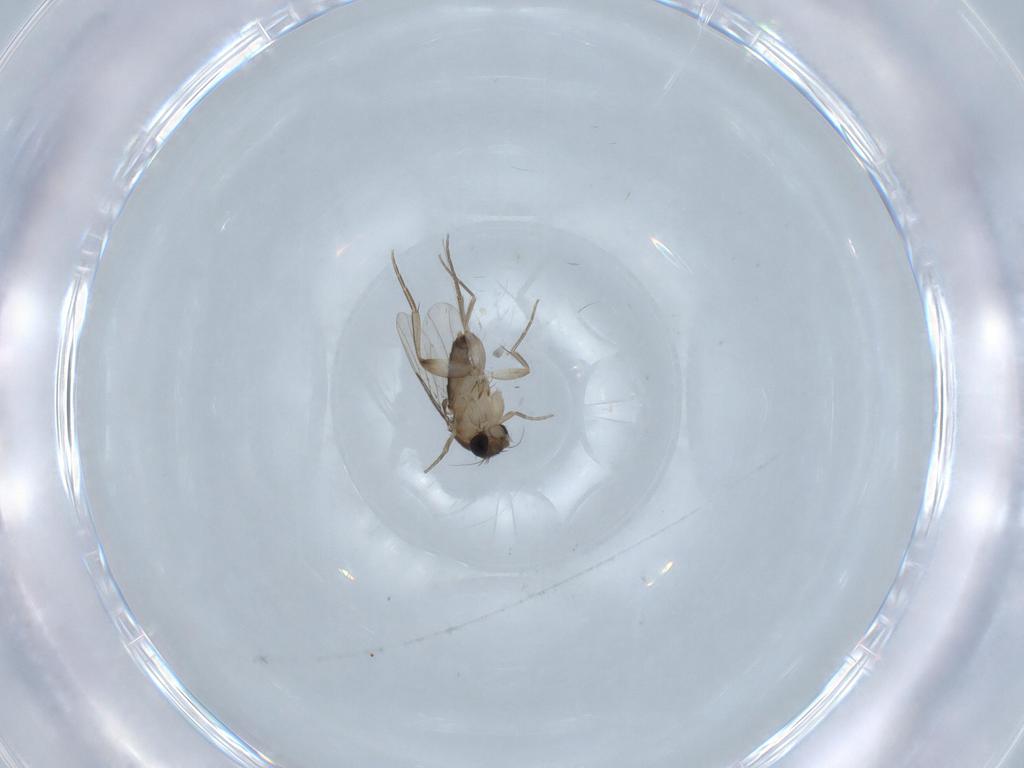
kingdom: Animalia
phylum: Arthropoda
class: Insecta
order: Diptera
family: Phoridae
